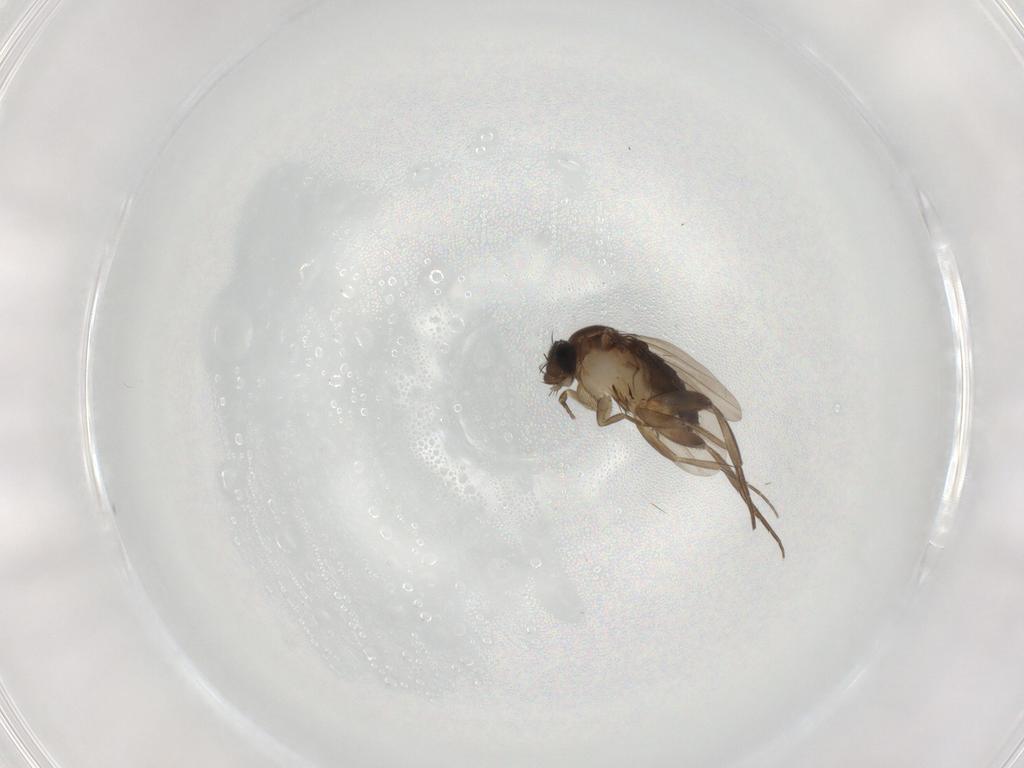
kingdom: Animalia
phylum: Arthropoda
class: Insecta
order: Diptera
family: Phoridae
